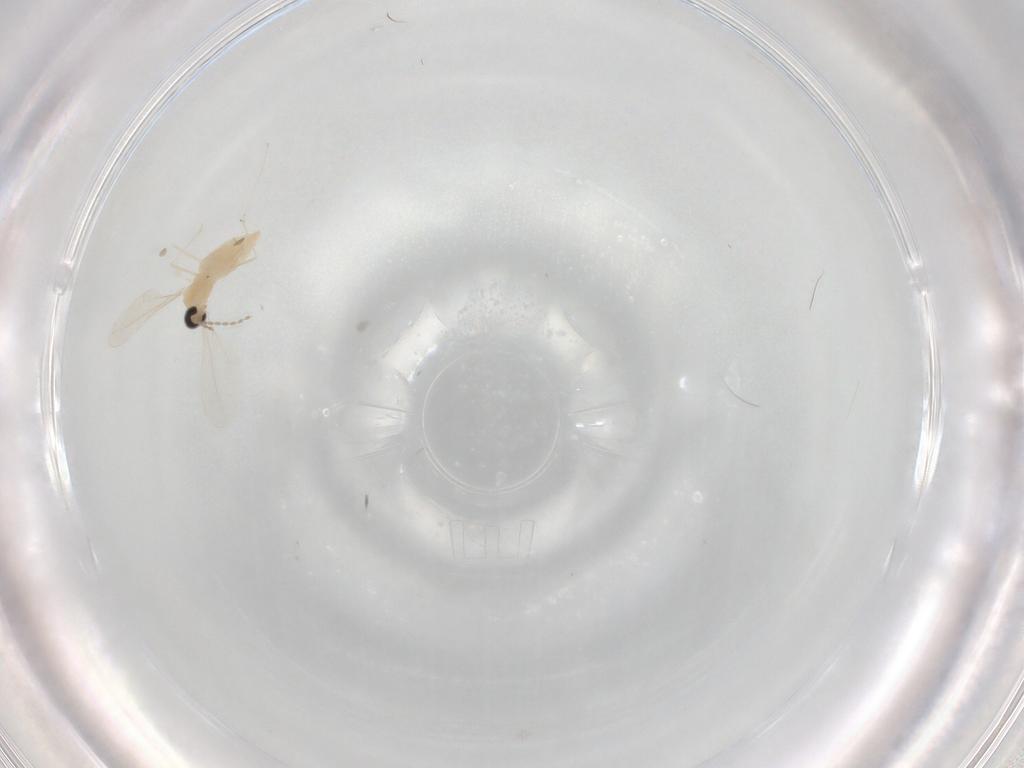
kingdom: Animalia
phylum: Arthropoda
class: Insecta
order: Diptera
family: Cecidomyiidae
